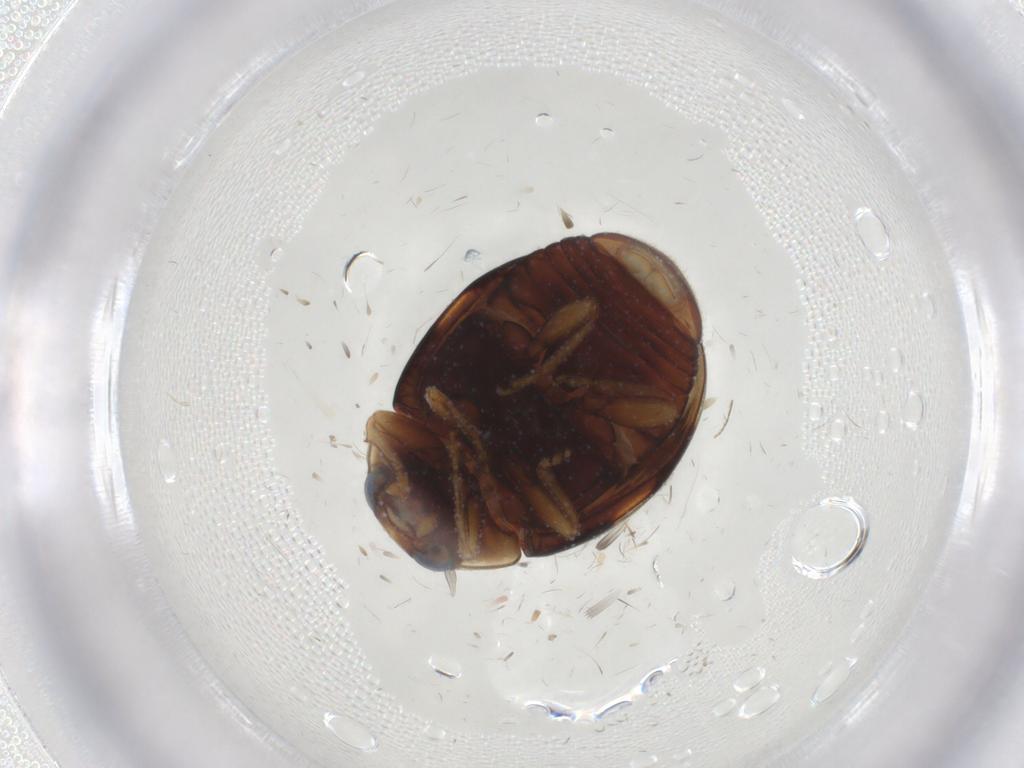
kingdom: Animalia
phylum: Arthropoda
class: Insecta
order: Coleoptera
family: Coccinellidae
